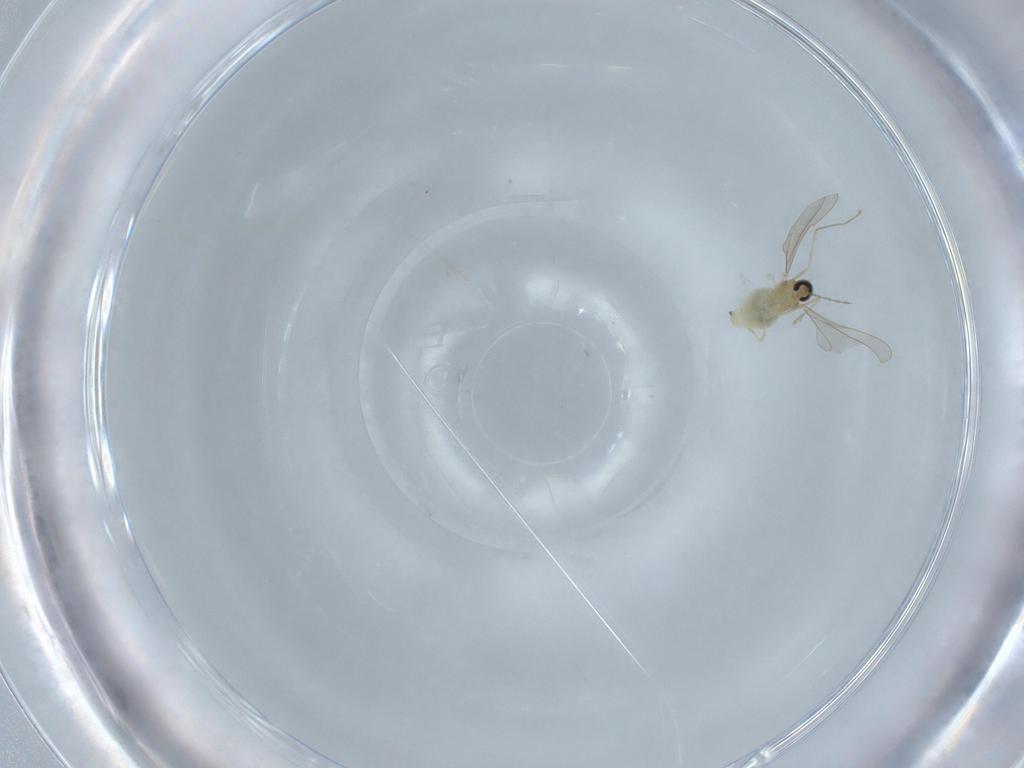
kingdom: Animalia
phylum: Arthropoda
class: Insecta
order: Diptera
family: Cecidomyiidae
